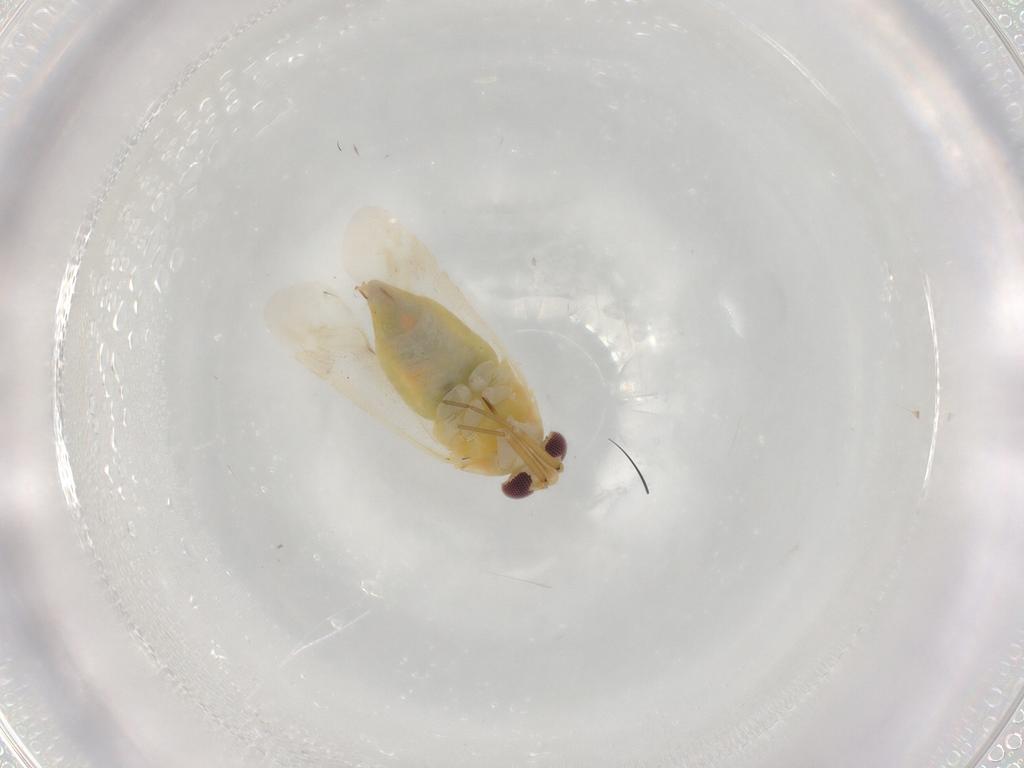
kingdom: Animalia
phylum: Arthropoda
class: Insecta
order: Hemiptera
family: Miridae
